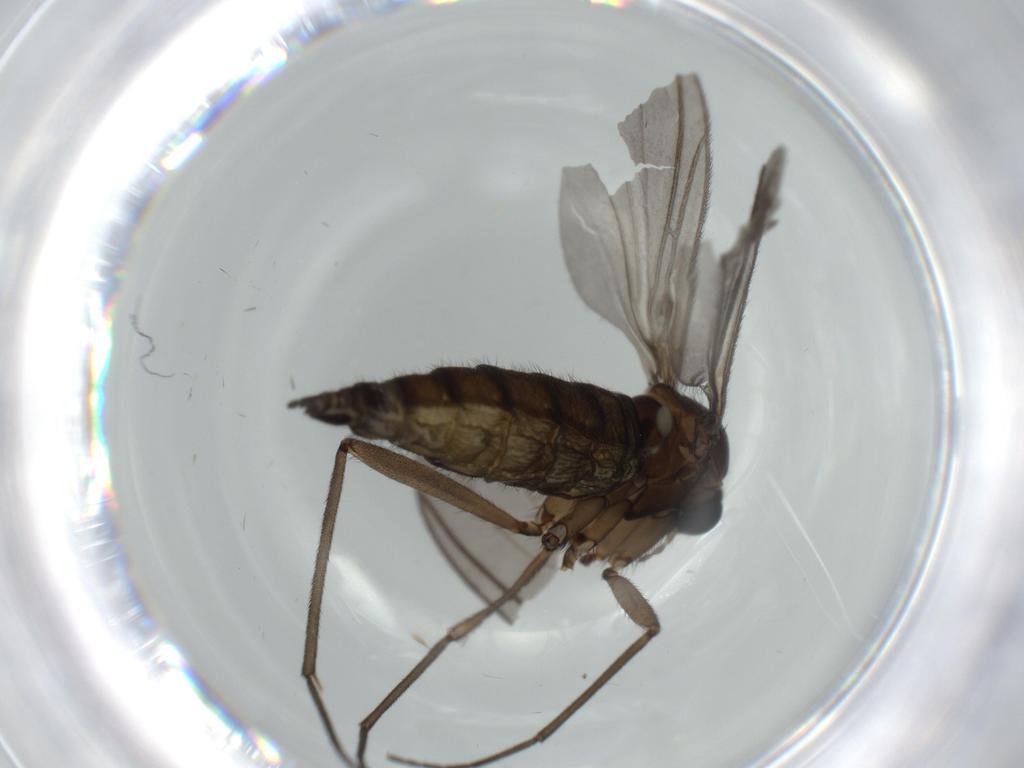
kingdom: Animalia
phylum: Arthropoda
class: Insecta
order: Diptera
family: Sciaridae
